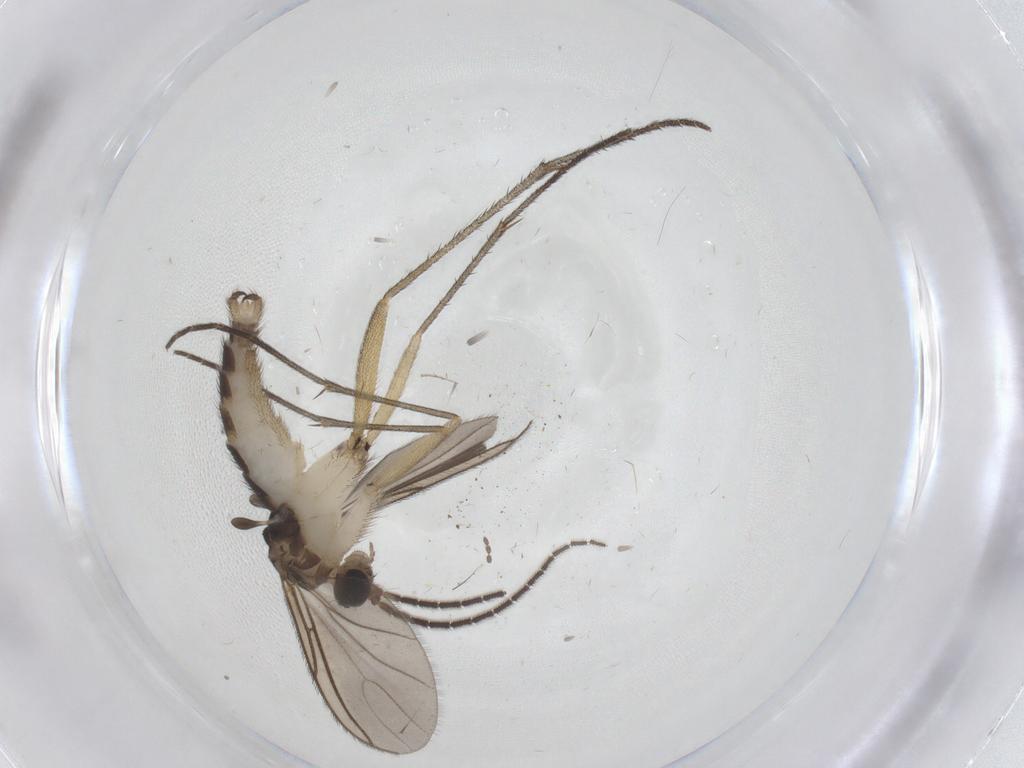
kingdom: Animalia
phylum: Arthropoda
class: Insecta
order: Diptera
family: Sciaridae
